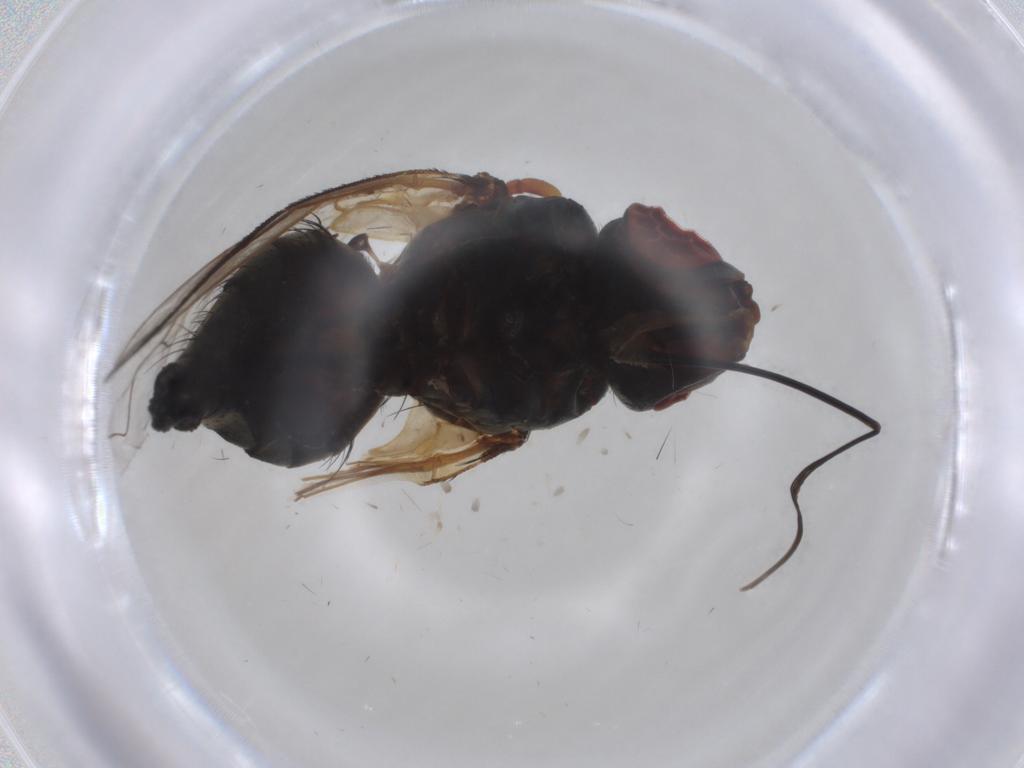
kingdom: Animalia
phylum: Arthropoda
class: Insecta
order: Diptera
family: Tachinidae
